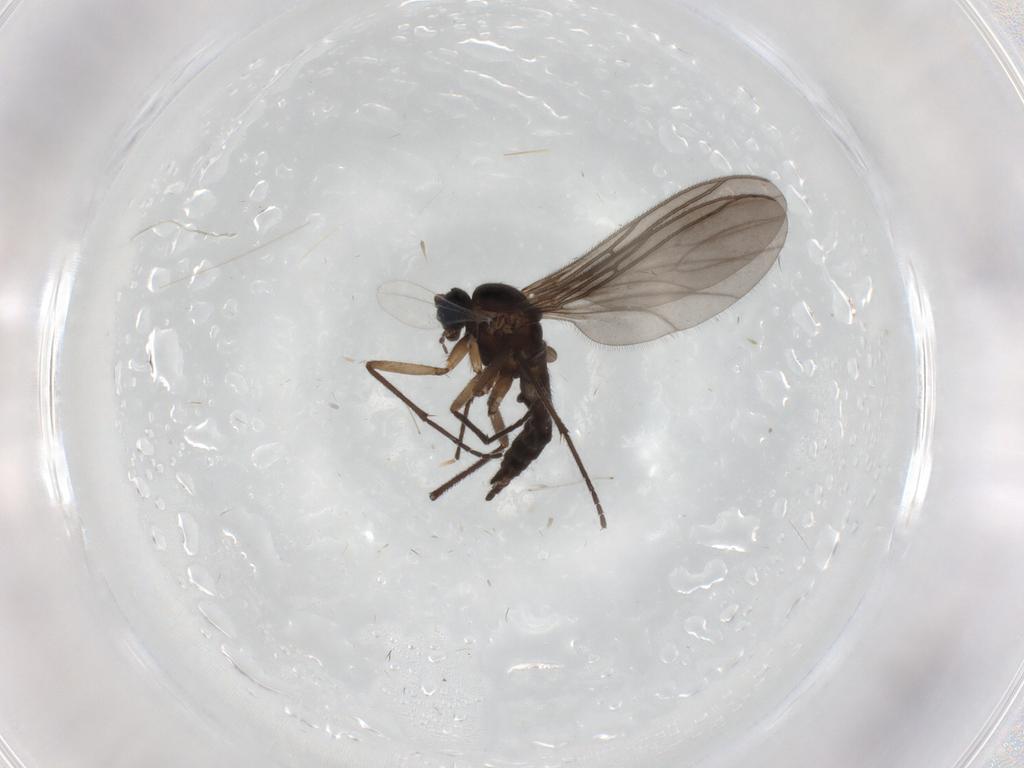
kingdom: Animalia
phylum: Arthropoda
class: Insecta
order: Diptera
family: Cecidomyiidae
